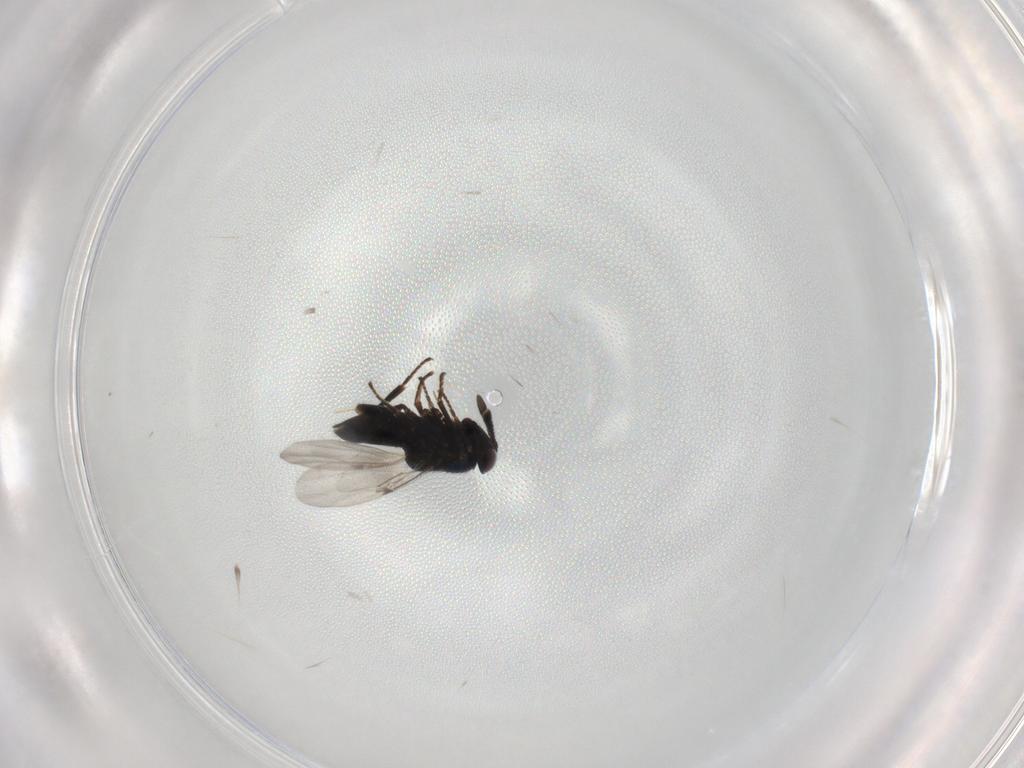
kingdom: Animalia
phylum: Arthropoda
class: Insecta
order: Hymenoptera
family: Encyrtidae
